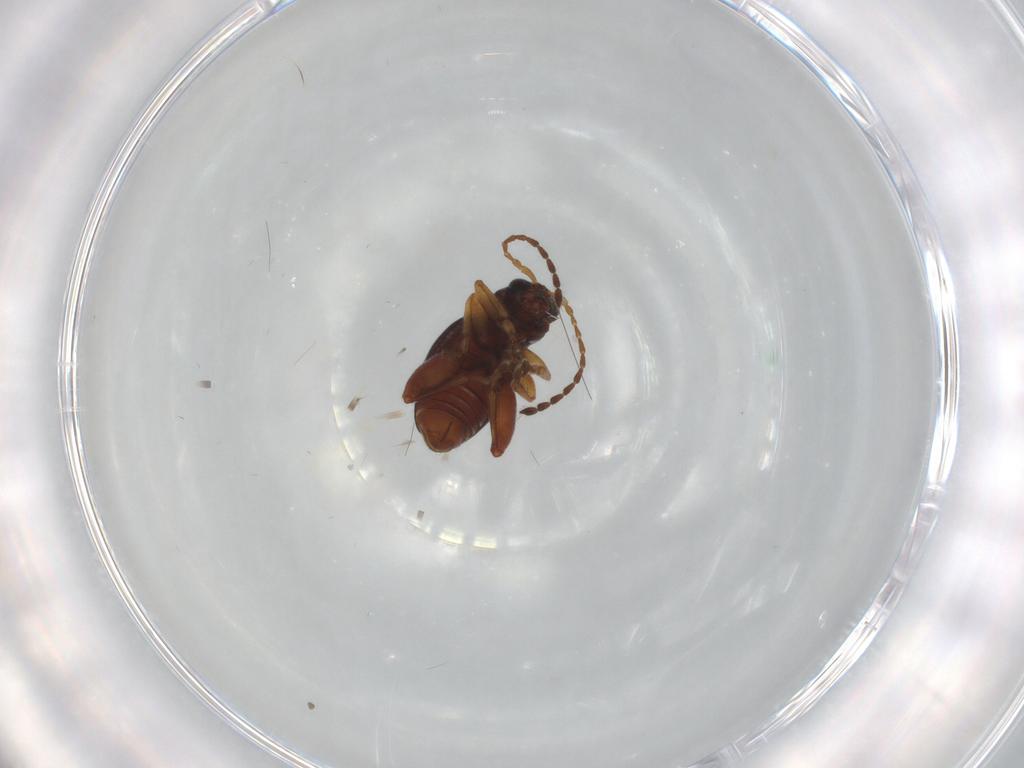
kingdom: Animalia
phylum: Arthropoda
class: Insecta
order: Coleoptera
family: Chrysomelidae
